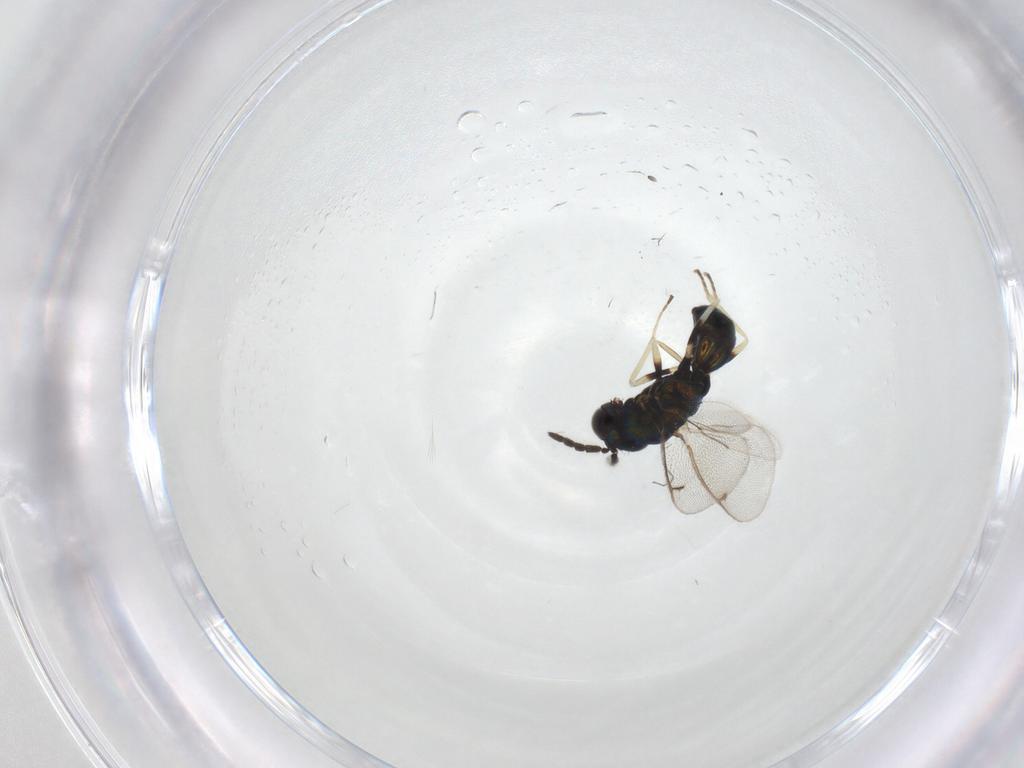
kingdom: Animalia
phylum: Arthropoda
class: Insecta
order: Hymenoptera
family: Eulophidae
